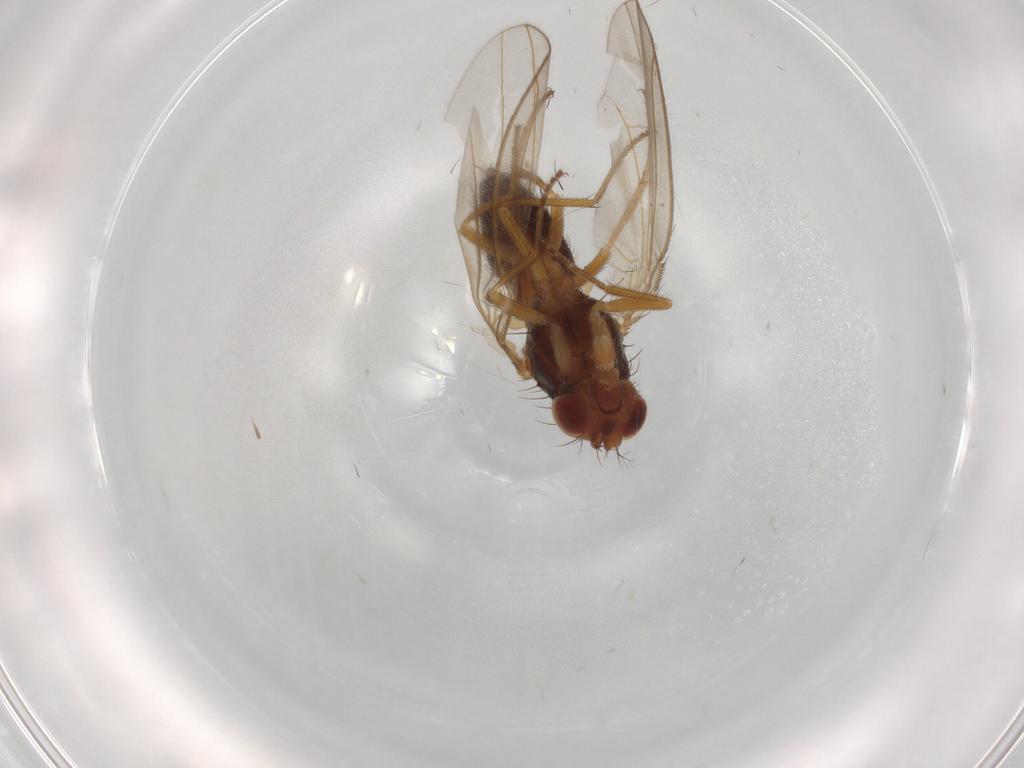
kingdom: Animalia
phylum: Arthropoda
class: Insecta
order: Diptera
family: Drosophilidae
